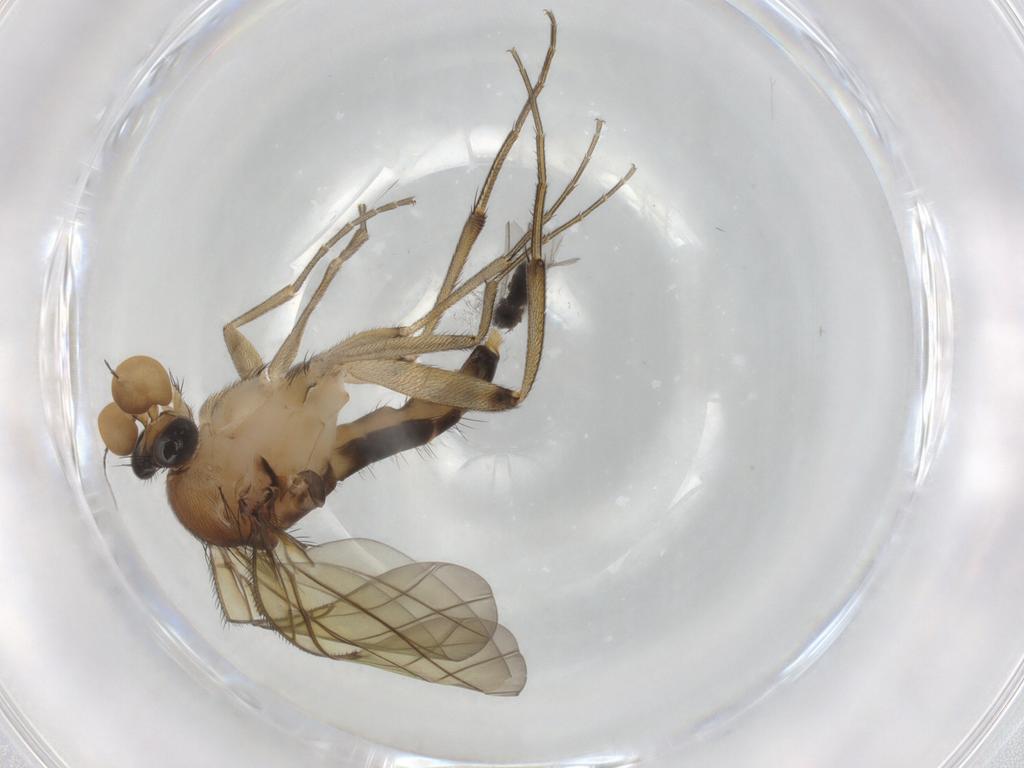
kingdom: Animalia
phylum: Arthropoda
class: Insecta
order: Diptera
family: Phoridae
